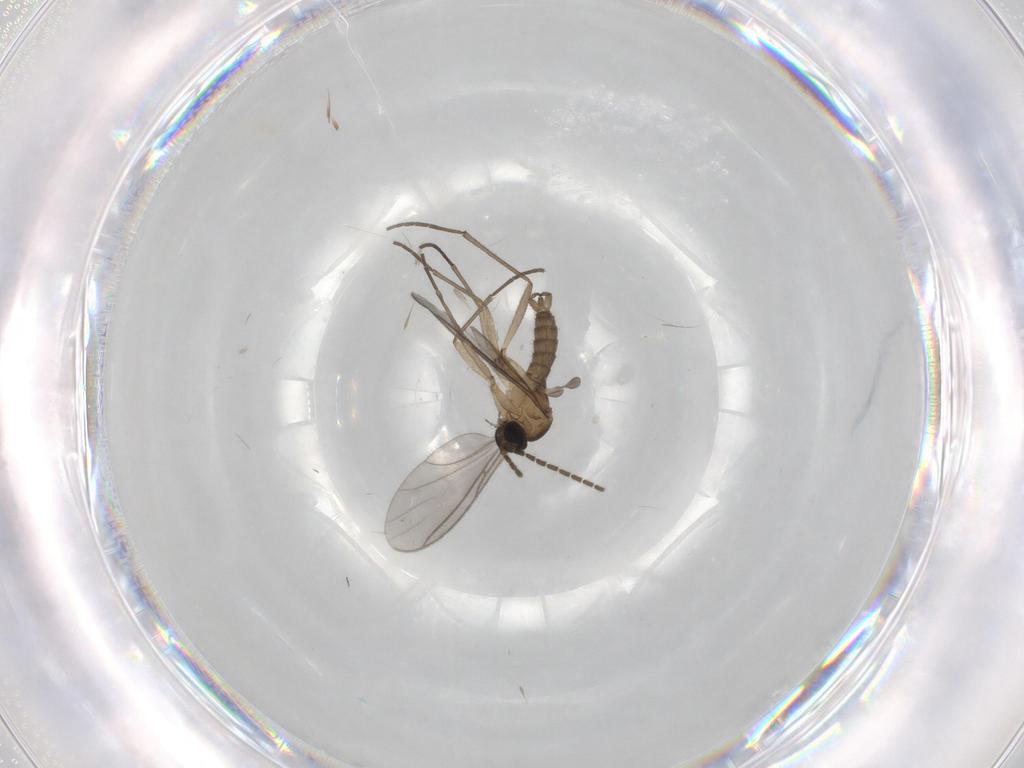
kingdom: Animalia
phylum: Arthropoda
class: Insecta
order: Diptera
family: Sciaridae
